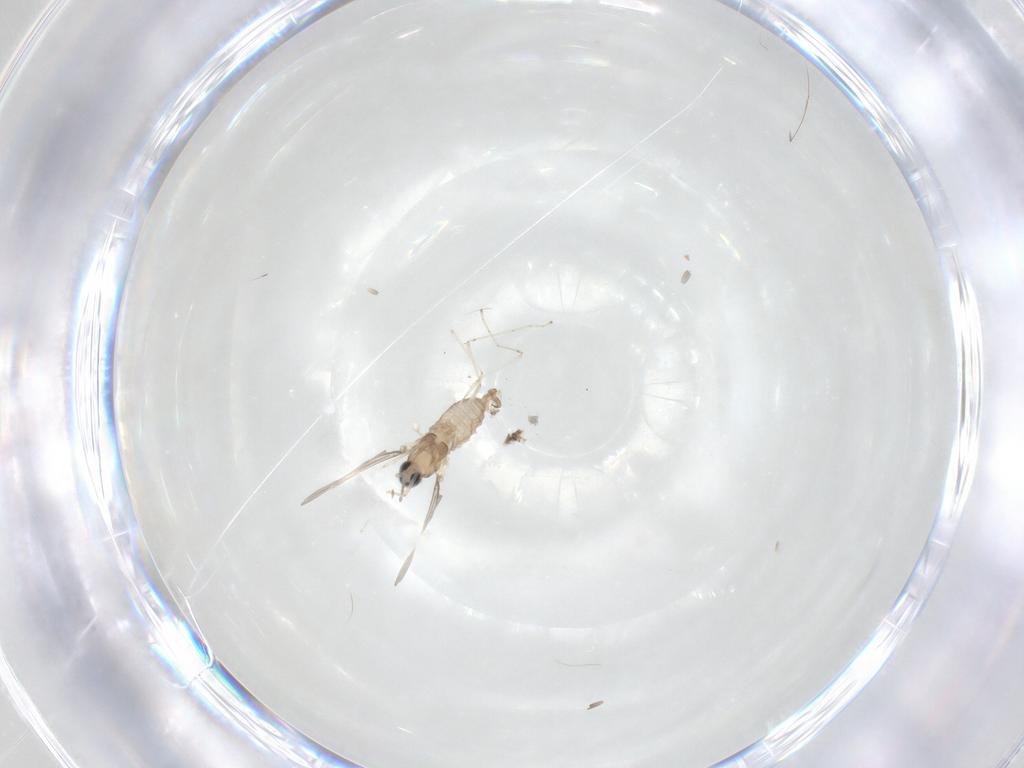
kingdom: Animalia
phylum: Arthropoda
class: Insecta
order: Diptera
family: Cecidomyiidae
